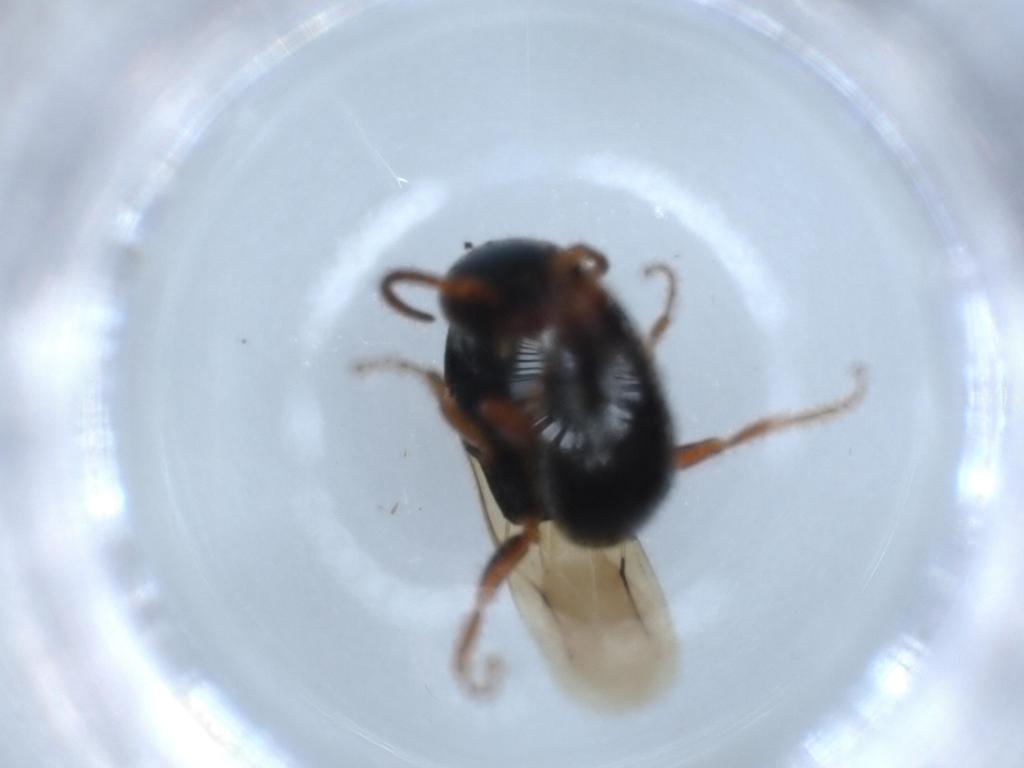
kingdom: Animalia
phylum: Arthropoda
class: Insecta
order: Hymenoptera
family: Bethylidae
